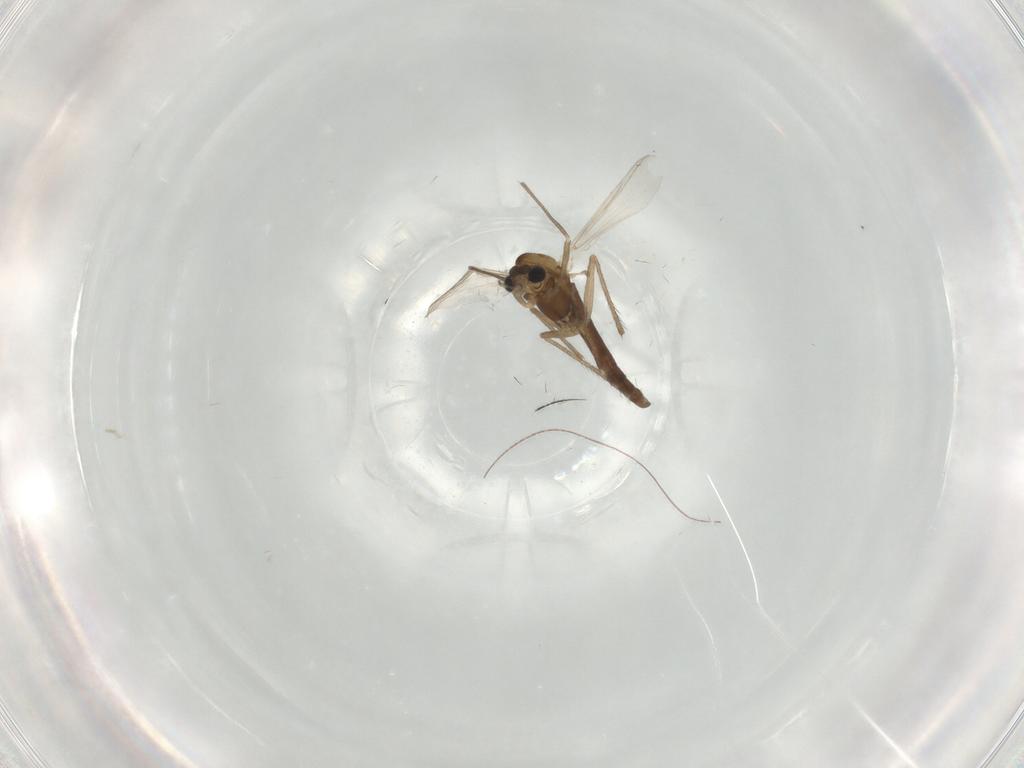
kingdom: Animalia
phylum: Arthropoda
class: Insecta
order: Diptera
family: Chironomidae
